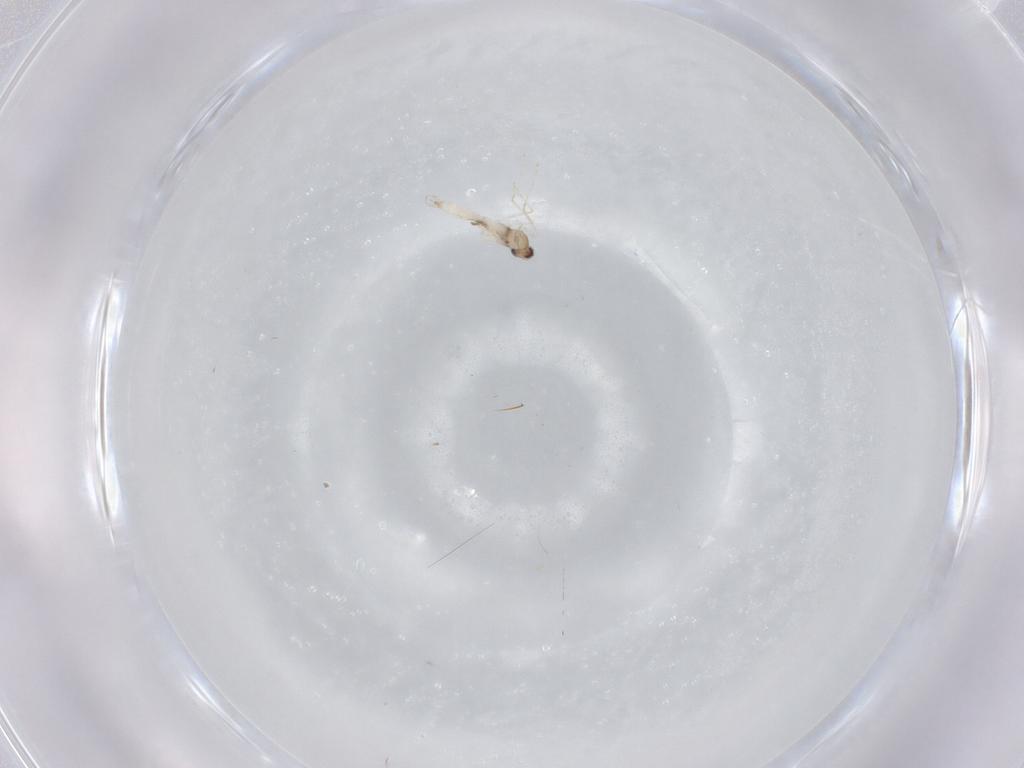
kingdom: Animalia
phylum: Arthropoda
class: Insecta
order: Diptera
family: Cecidomyiidae
